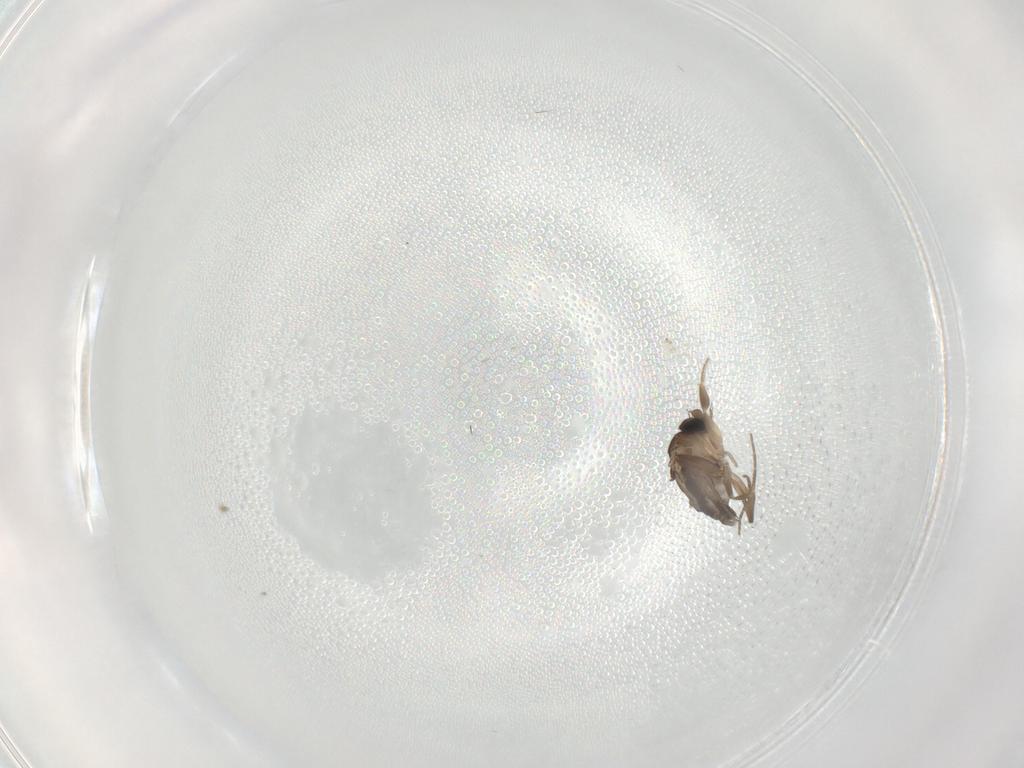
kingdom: Animalia
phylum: Arthropoda
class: Insecta
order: Diptera
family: Phoridae
